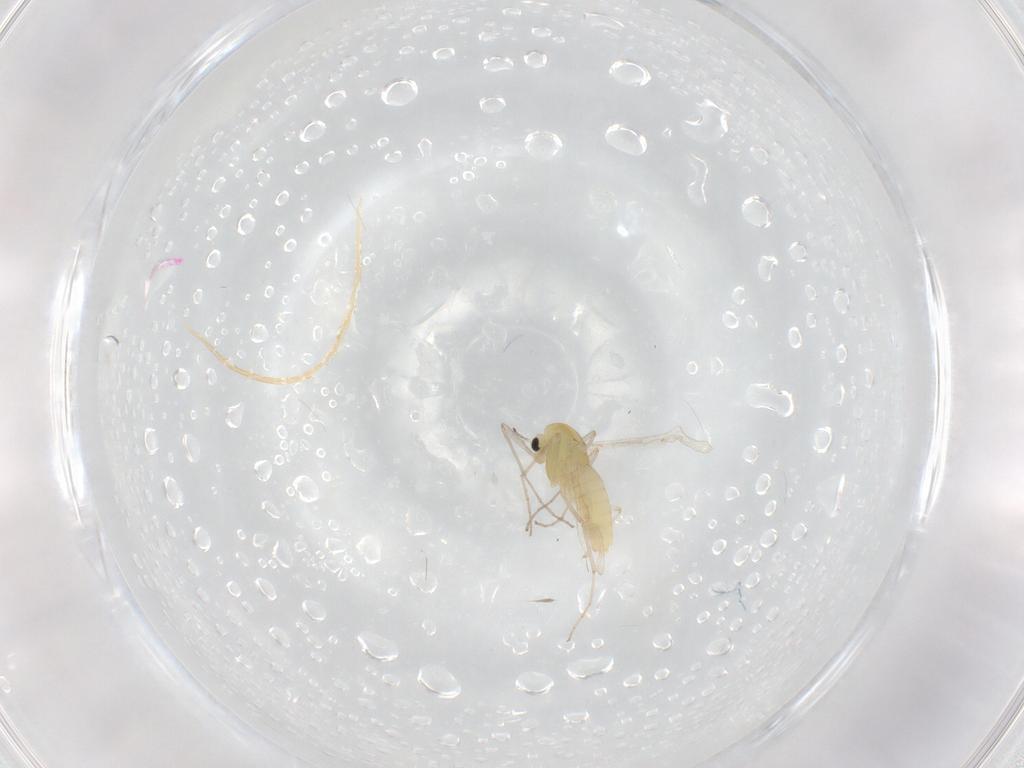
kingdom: Animalia
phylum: Arthropoda
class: Insecta
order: Diptera
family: Chironomidae
